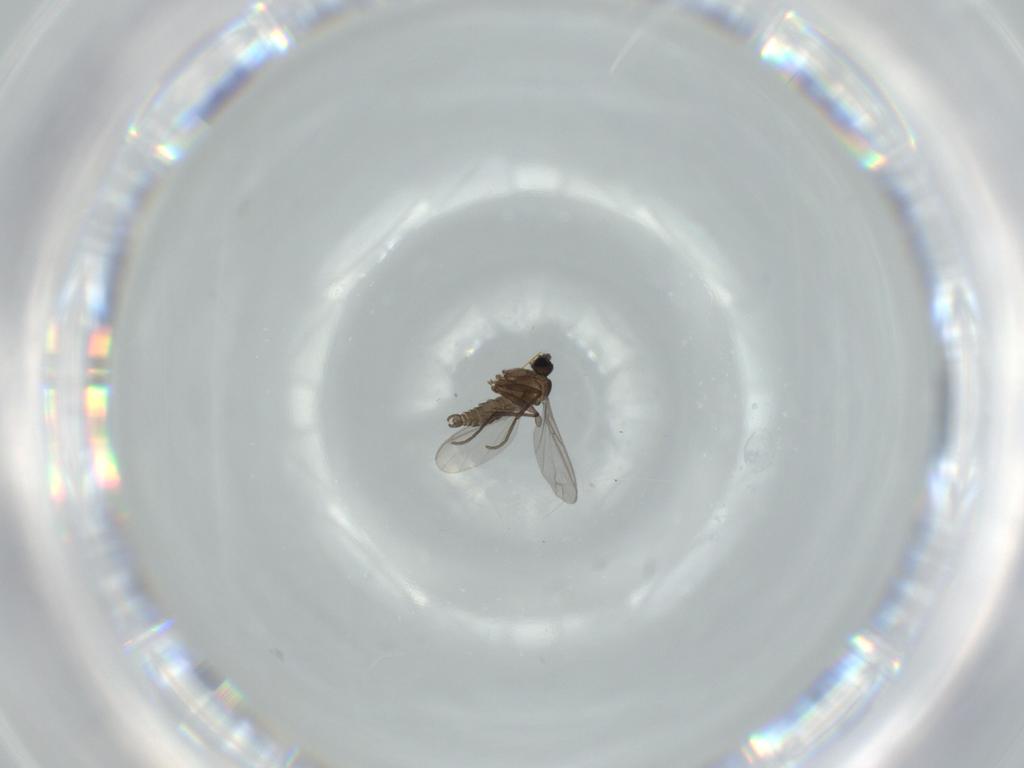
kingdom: Animalia
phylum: Arthropoda
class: Insecta
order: Diptera
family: Sciaridae
